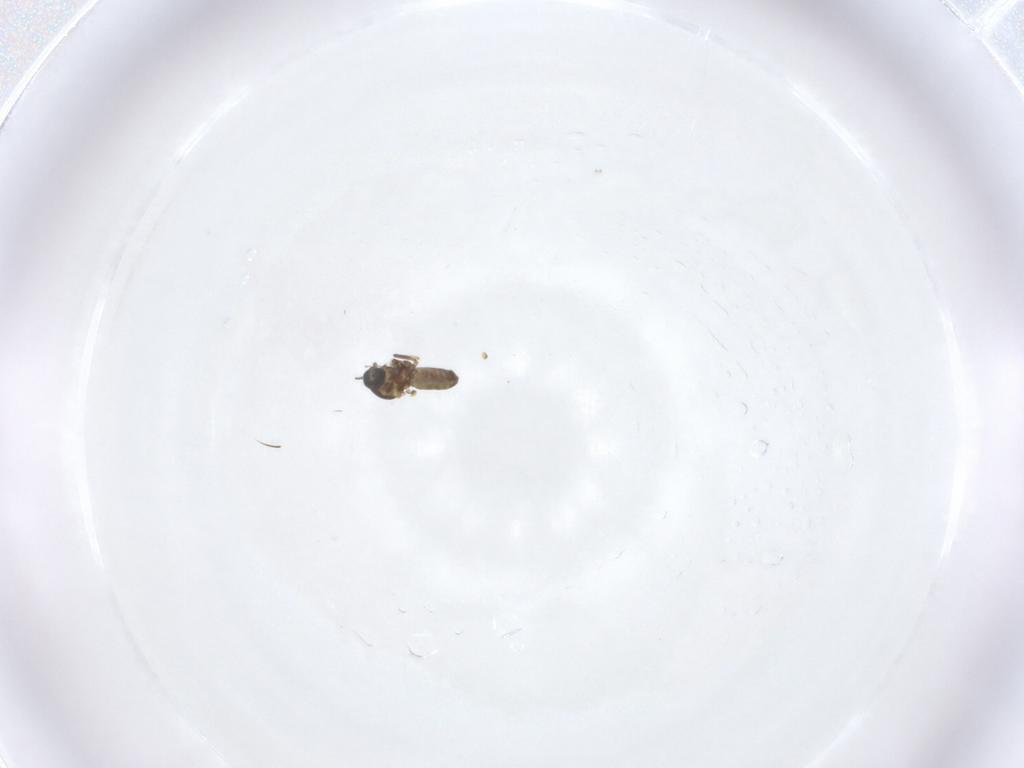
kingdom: Animalia
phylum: Arthropoda
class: Insecta
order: Diptera
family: Ceratopogonidae
